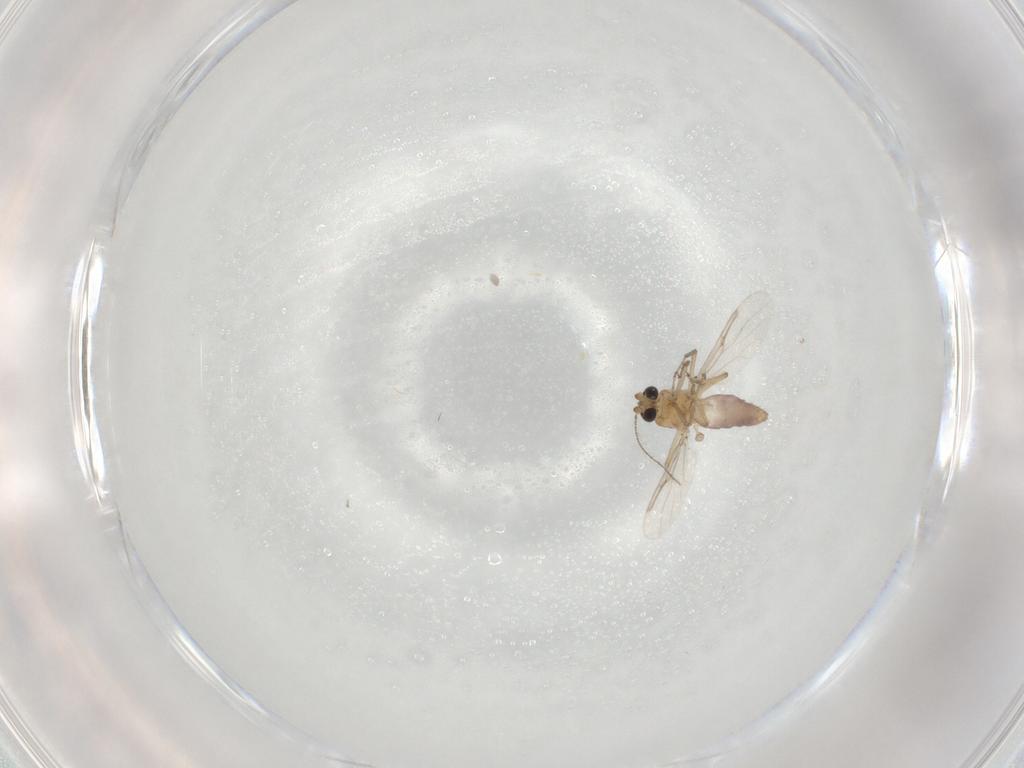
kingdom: Animalia
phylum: Arthropoda
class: Insecta
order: Diptera
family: Ceratopogonidae
